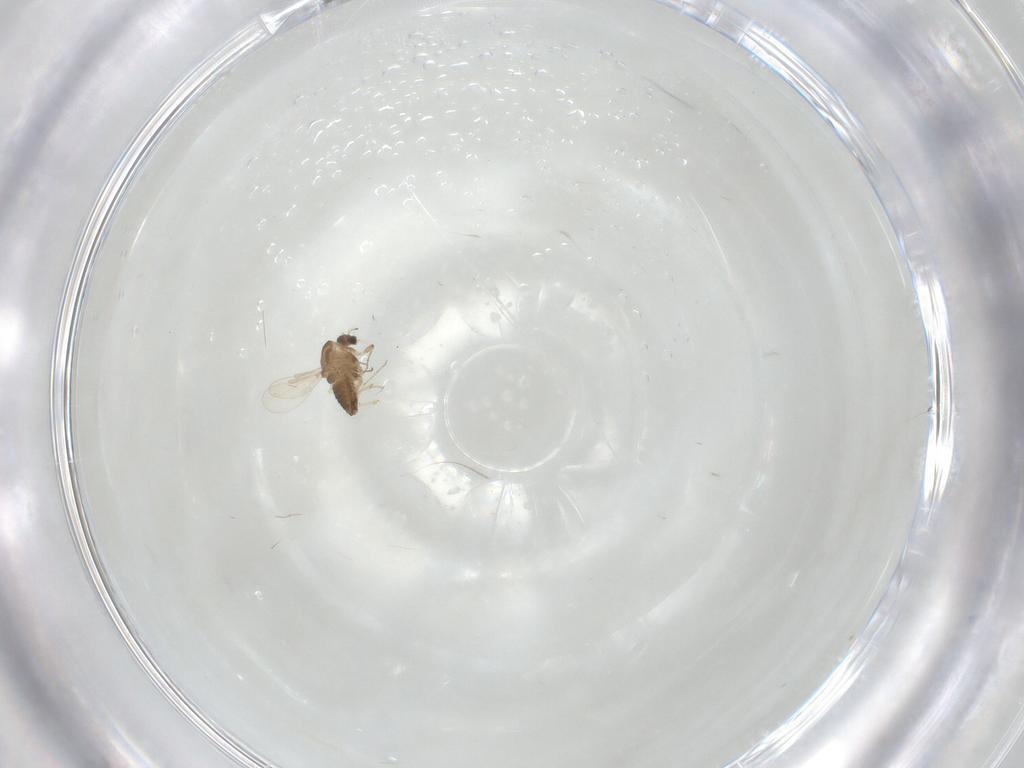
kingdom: Animalia
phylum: Arthropoda
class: Insecta
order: Diptera
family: Chironomidae
